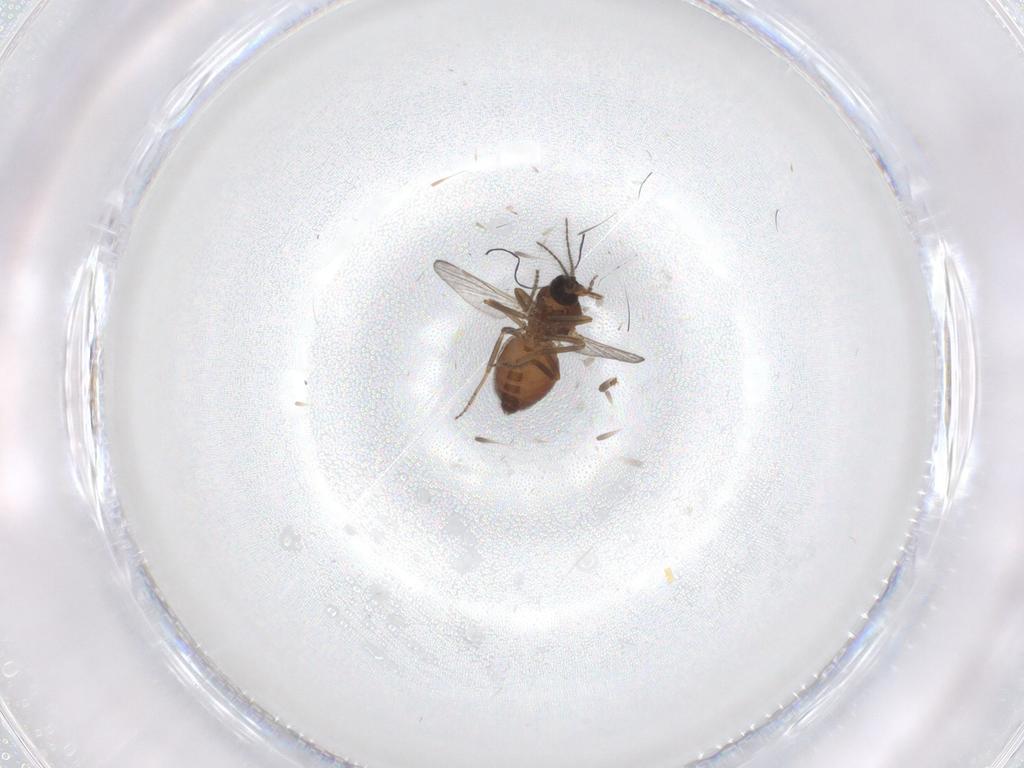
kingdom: Animalia
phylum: Arthropoda
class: Insecta
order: Diptera
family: Ceratopogonidae
